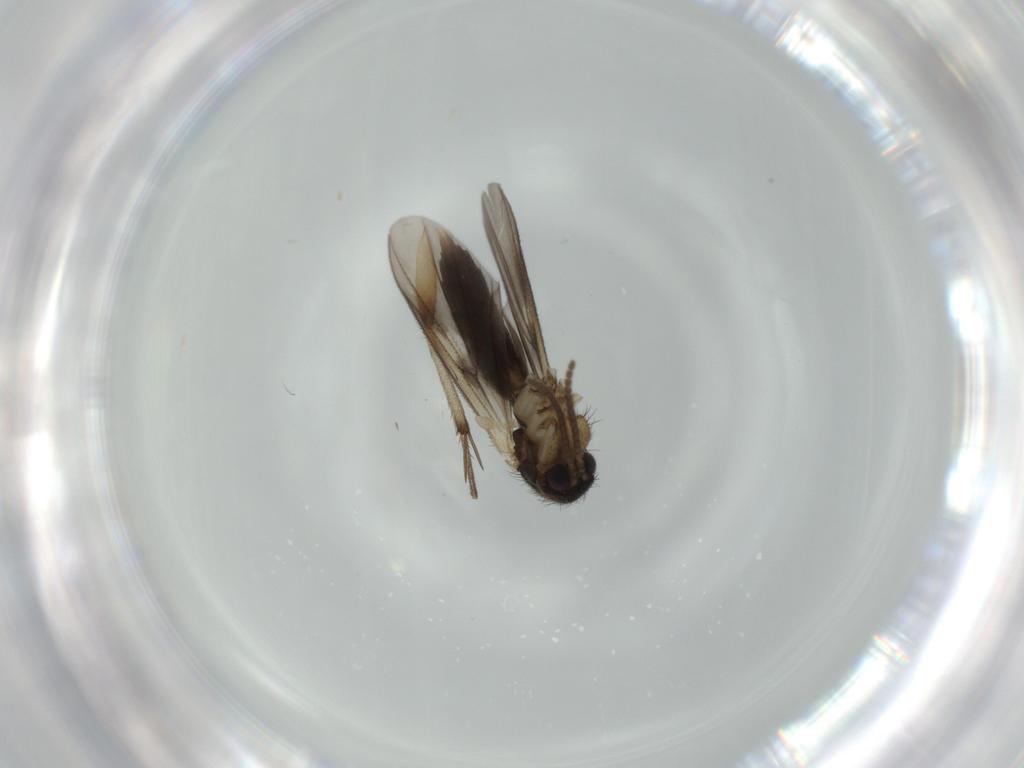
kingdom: Animalia
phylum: Arthropoda
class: Insecta
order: Diptera
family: Mycetophilidae
